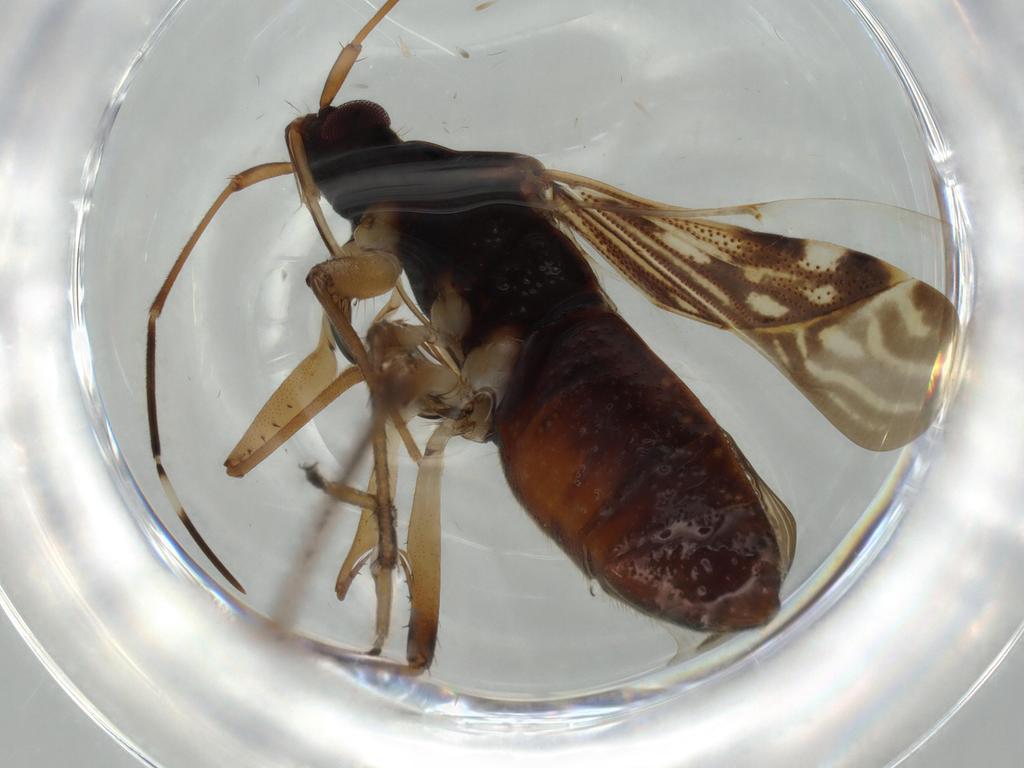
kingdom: Animalia
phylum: Arthropoda
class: Insecta
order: Hemiptera
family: Rhyparochromidae
